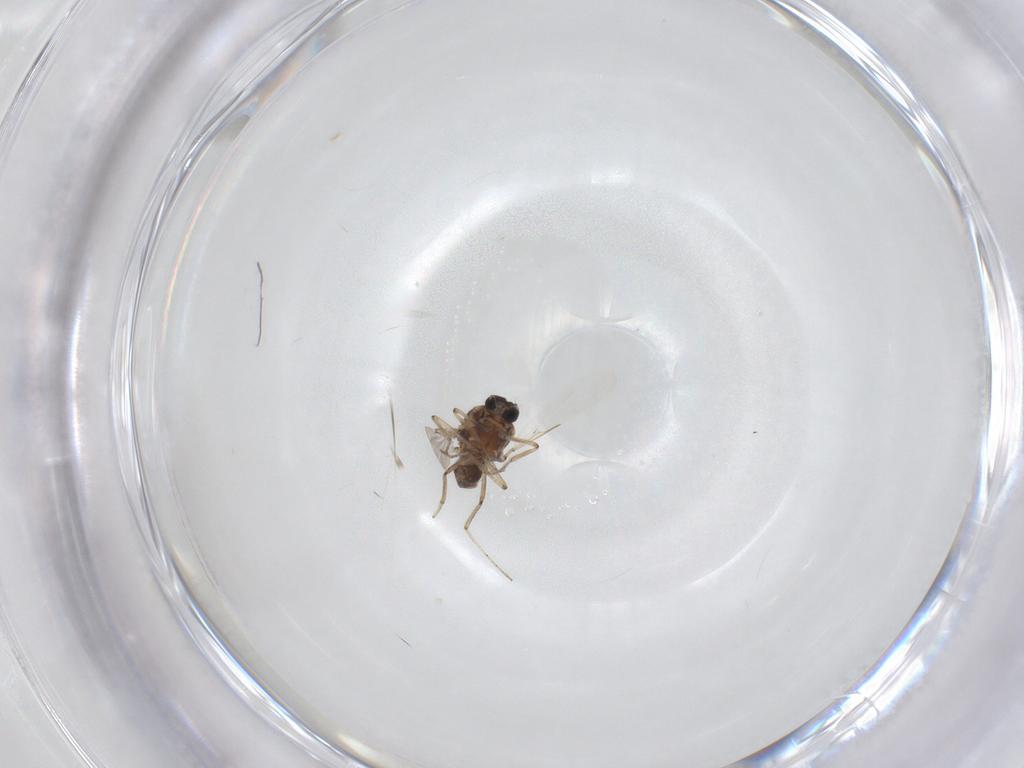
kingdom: Animalia
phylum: Arthropoda
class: Insecta
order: Diptera
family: Ceratopogonidae
